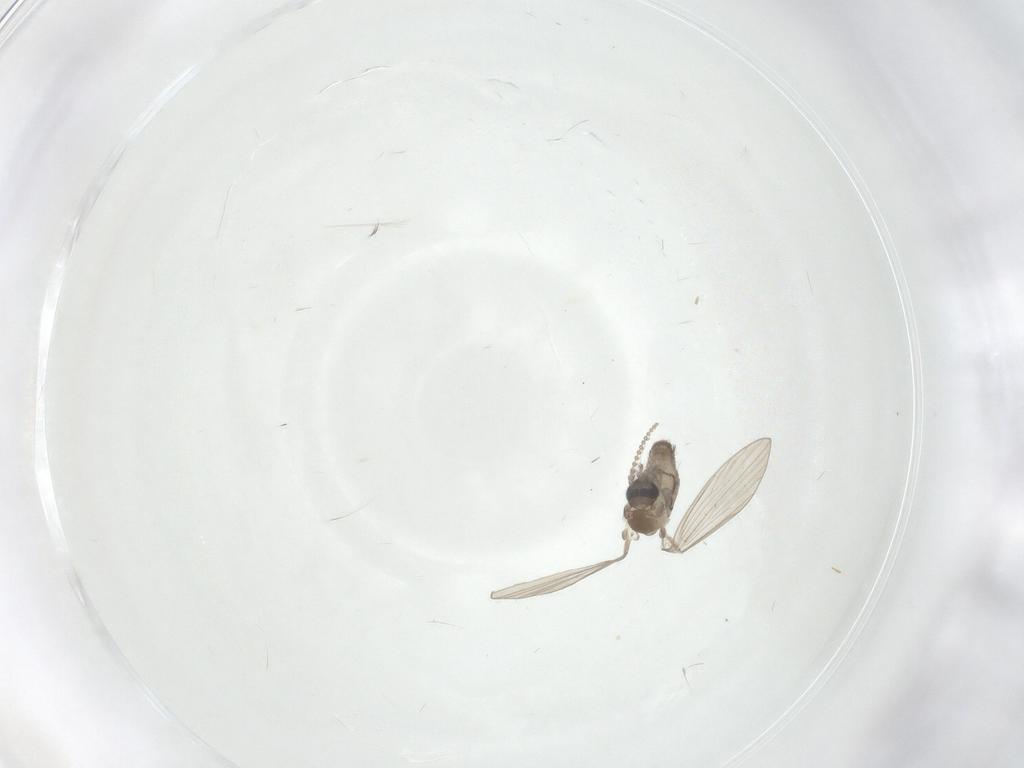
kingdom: Animalia
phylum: Arthropoda
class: Insecta
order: Diptera
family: Psychodidae
